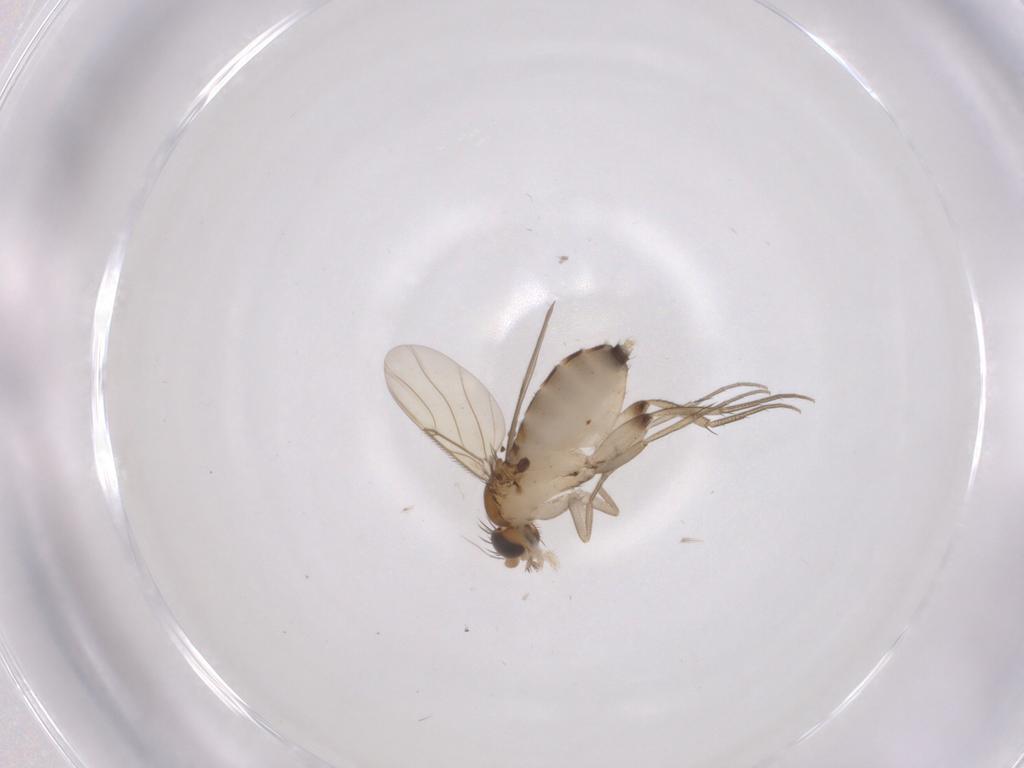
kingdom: Animalia
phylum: Arthropoda
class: Insecta
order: Diptera
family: Phoridae
